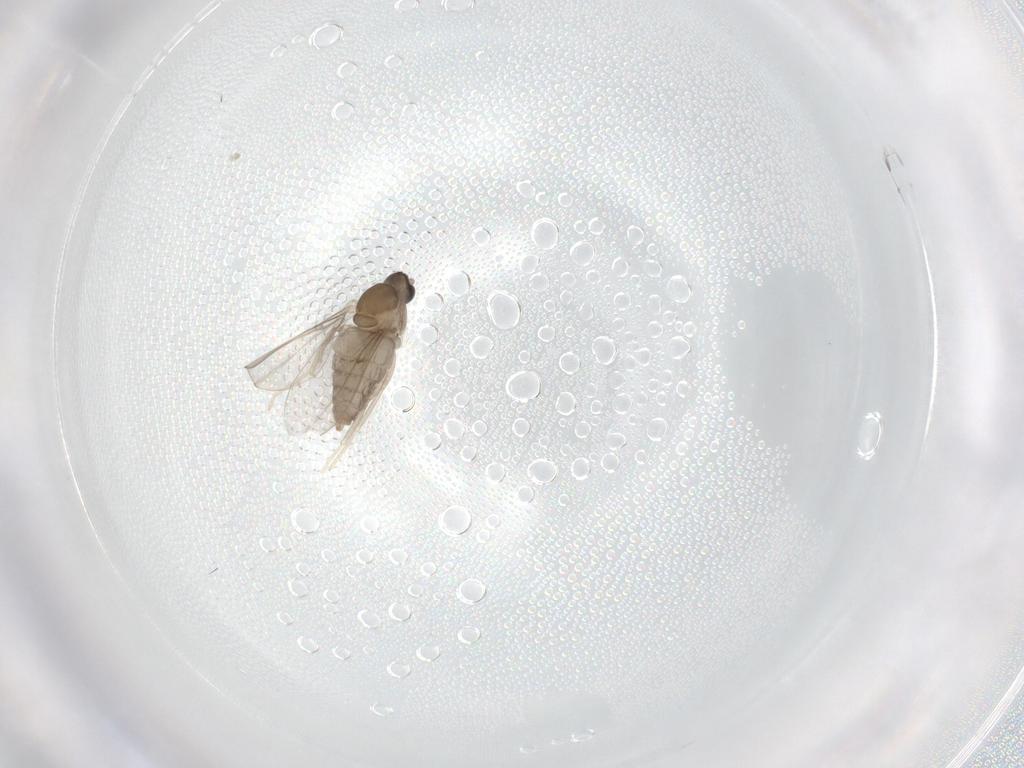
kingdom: Animalia
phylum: Arthropoda
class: Insecta
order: Diptera
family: Cecidomyiidae
